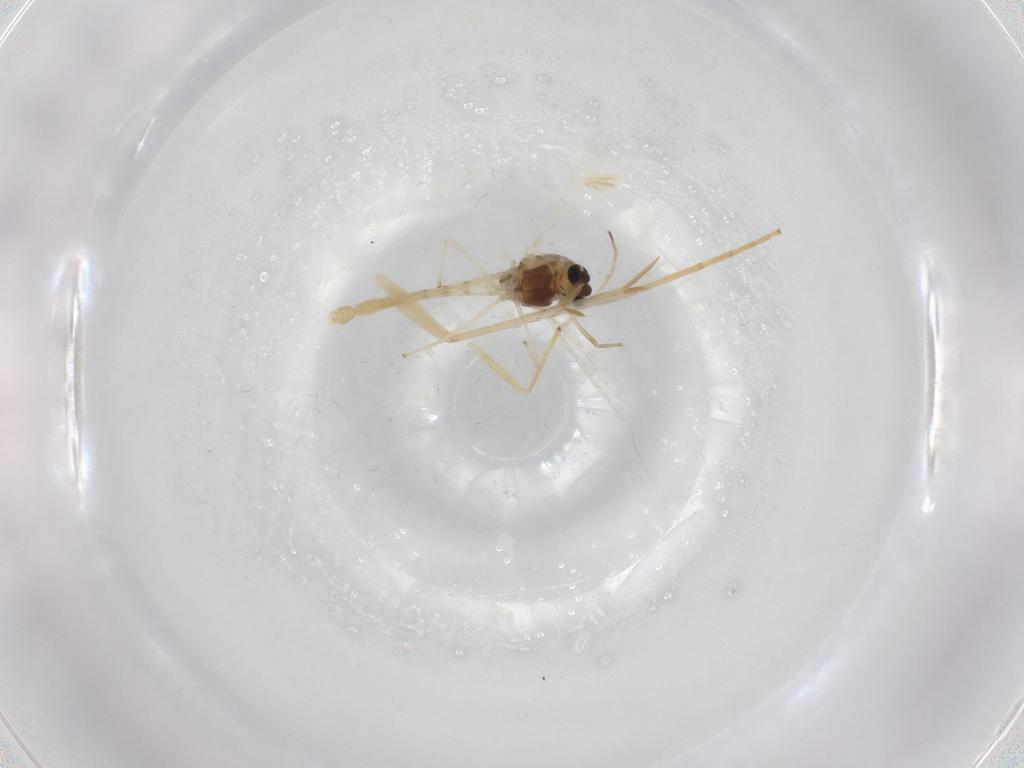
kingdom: Animalia
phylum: Arthropoda
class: Insecta
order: Diptera
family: Chironomidae
